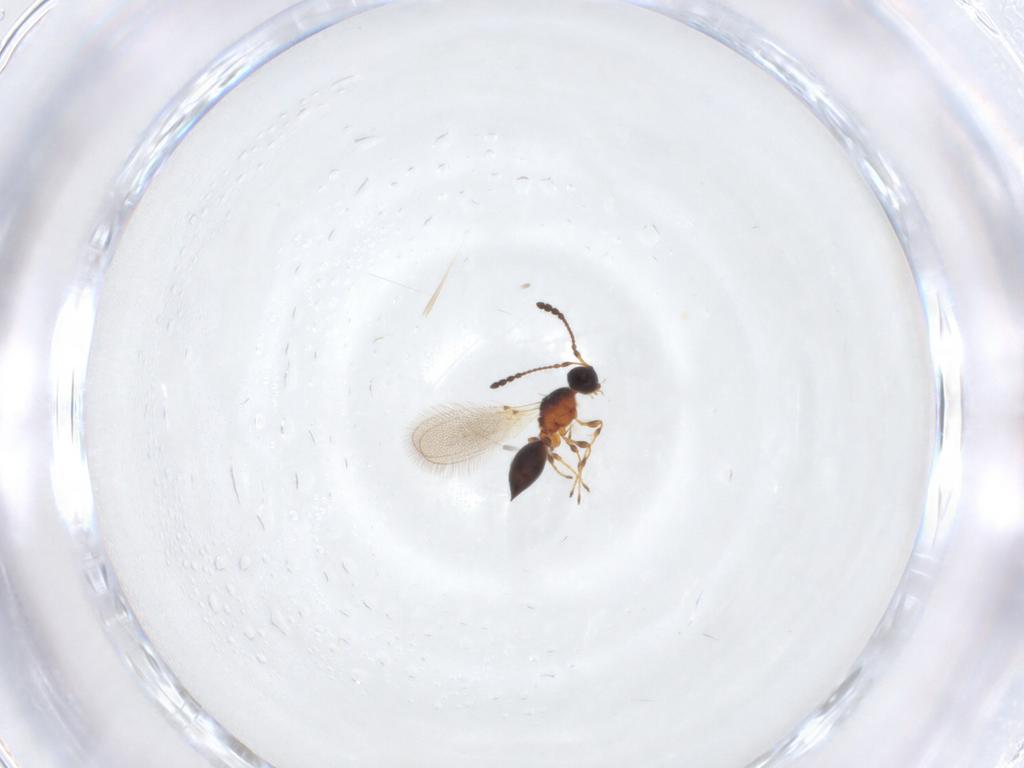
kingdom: Animalia
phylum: Arthropoda
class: Insecta
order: Hymenoptera
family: Diapriidae
